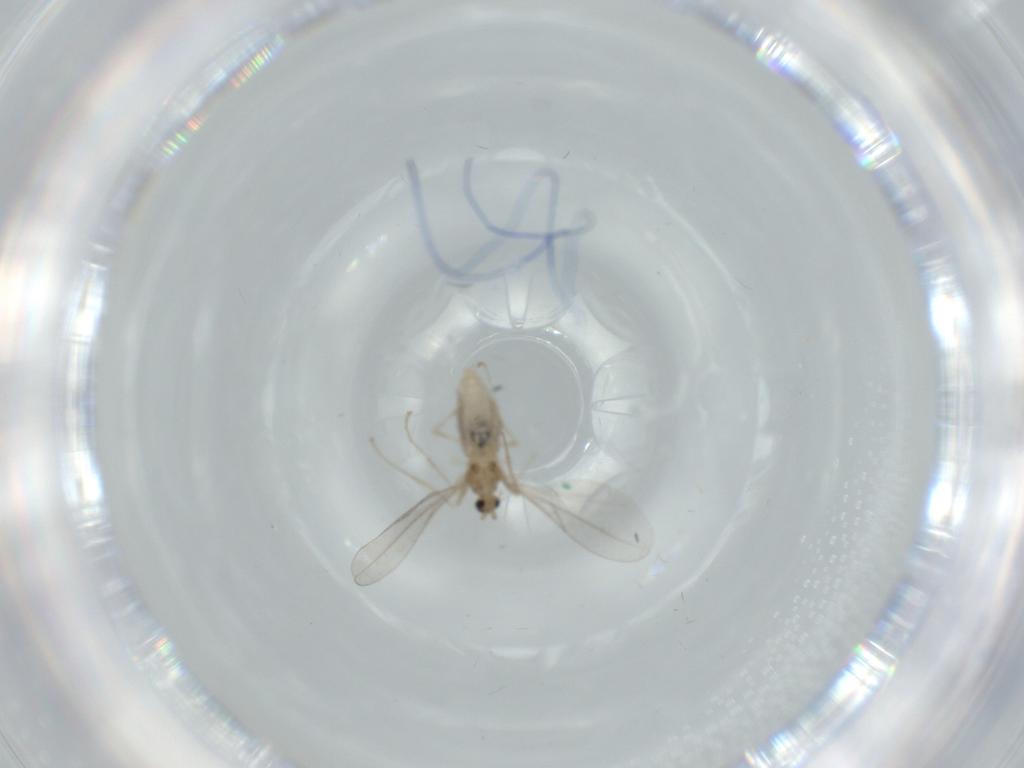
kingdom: Animalia
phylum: Arthropoda
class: Insecta
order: Diptera
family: Cecidomyiidae
